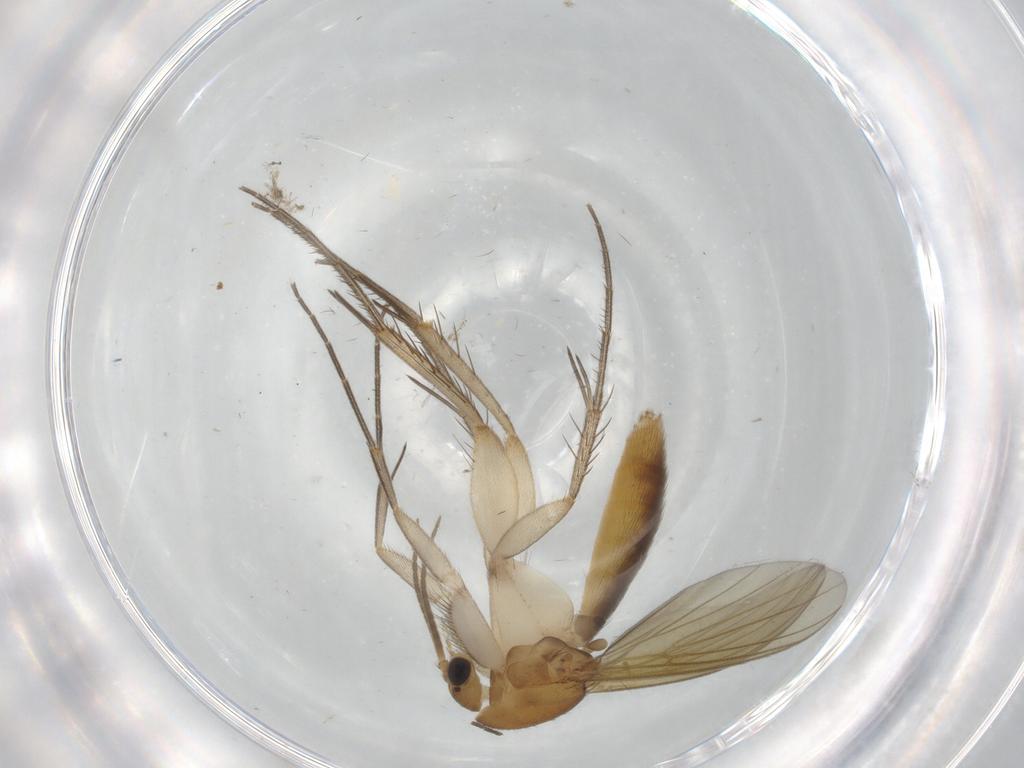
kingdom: Animalia
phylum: Arthropoda
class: Insecta
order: Diptera
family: Mycetophilidae
